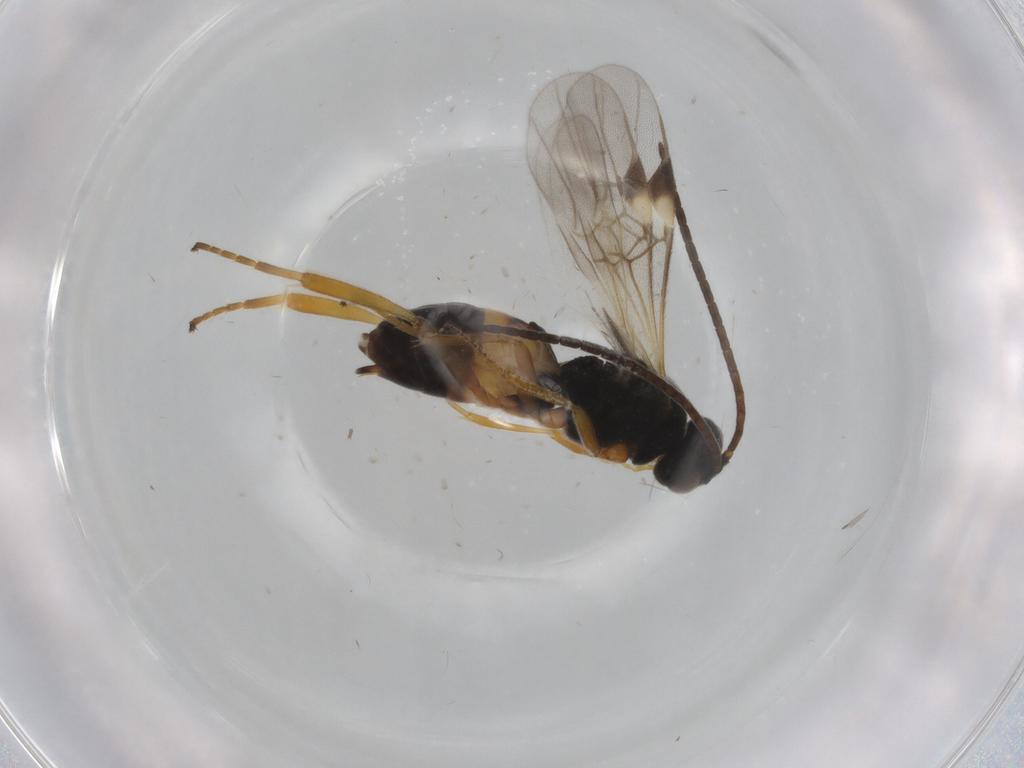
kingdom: Animalia
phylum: Arthropoda
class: Insecta
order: Hymenoptera
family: Braconidae
